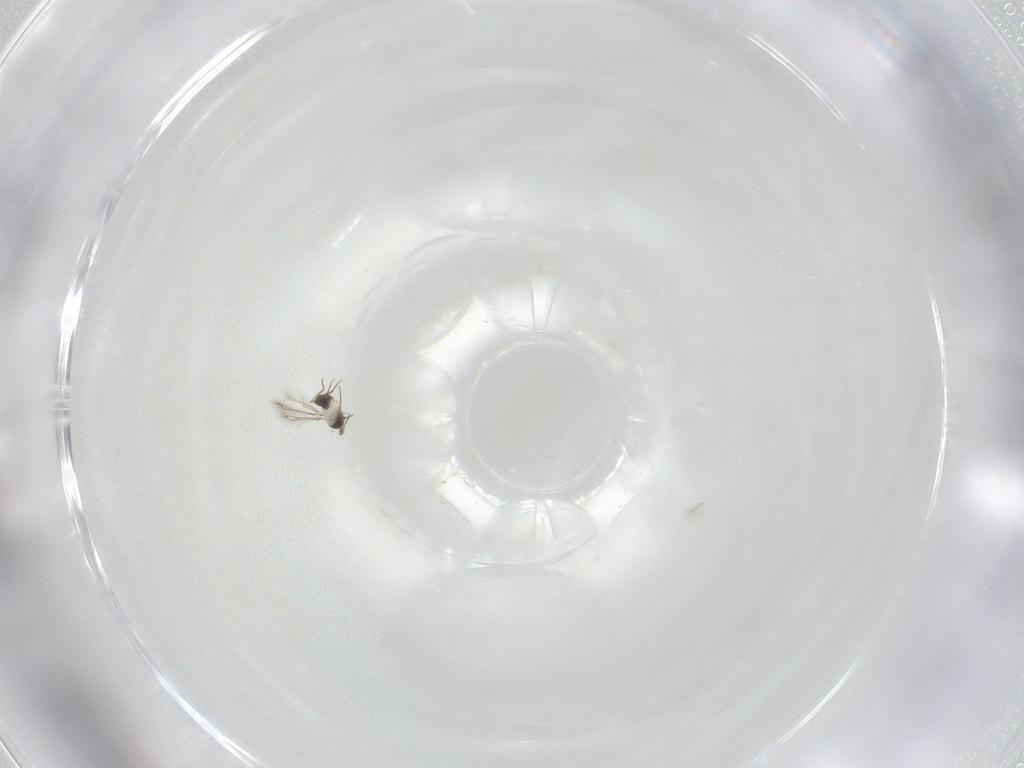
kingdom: Animalia
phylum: Arthropoda
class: Insecta
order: Hymenoptera
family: Mymaridae
